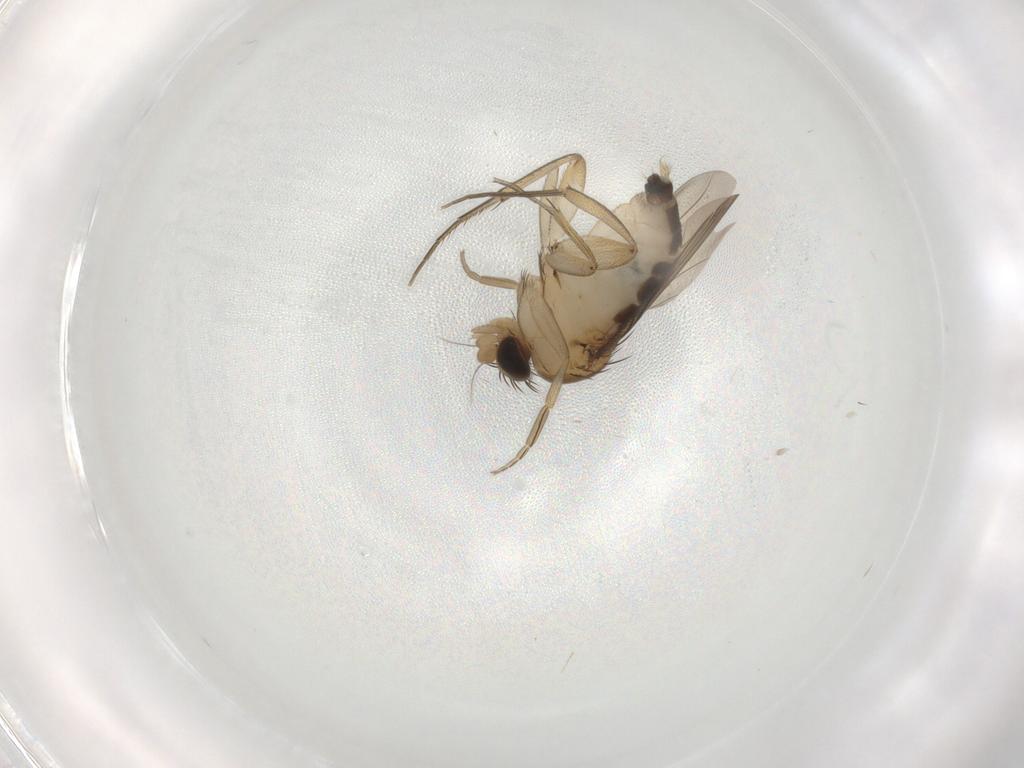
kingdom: Animalia
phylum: Arthropoda
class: Insecta
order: Diptera
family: Phoridae
